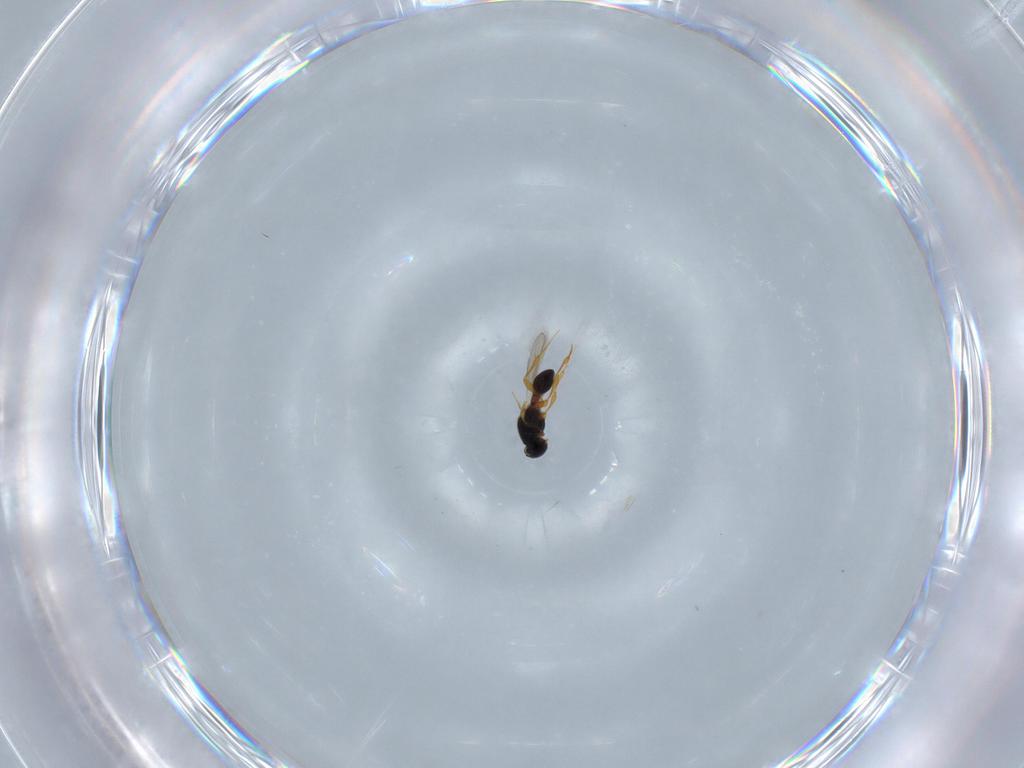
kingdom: Animalia
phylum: Arthropoda
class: Insecta
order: Hymenoptera
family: Platygastridae
